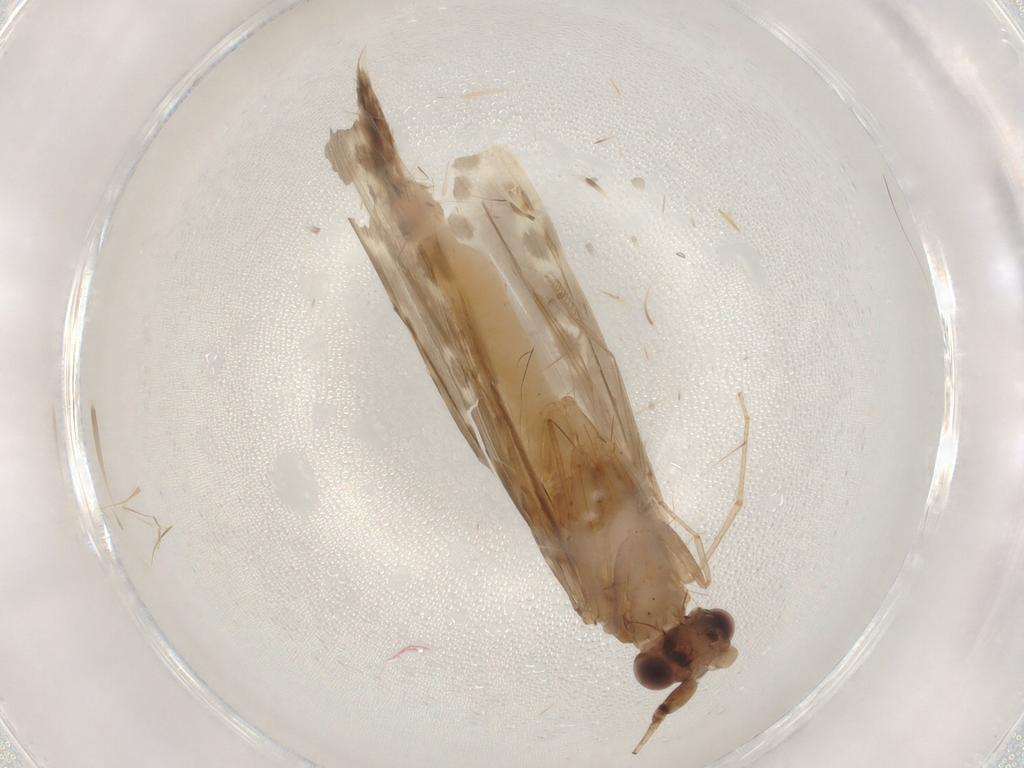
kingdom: Animalia
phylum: Arthropoda
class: Insecta
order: Trichoptera
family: Leptoceridae
